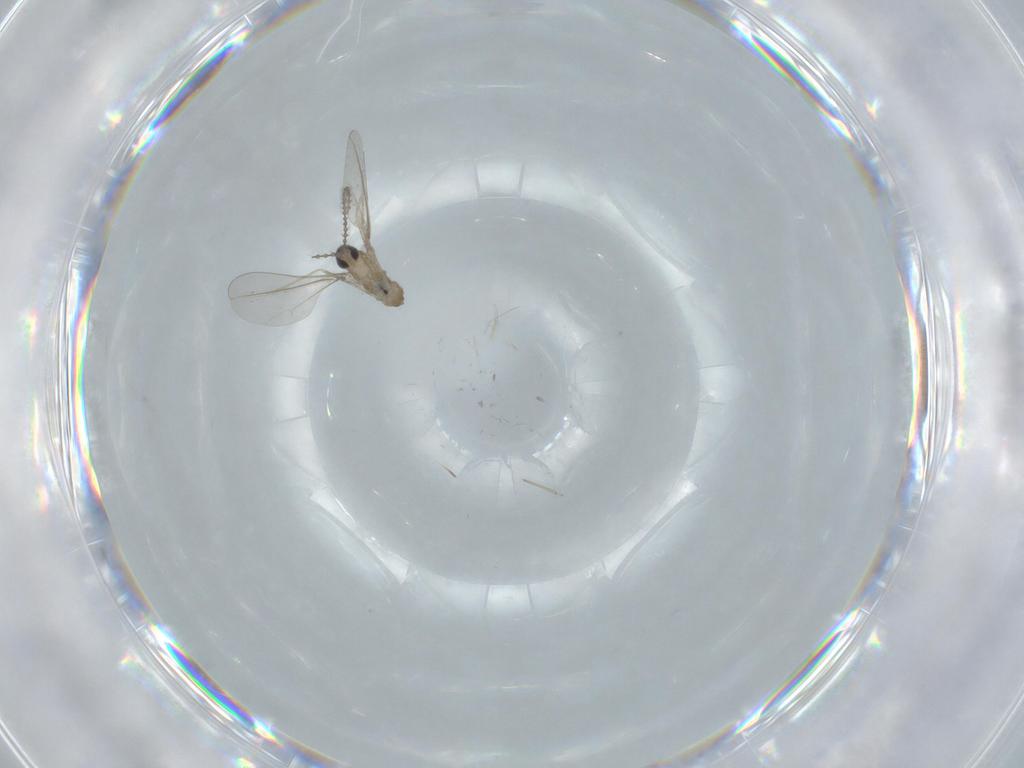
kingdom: Animalia
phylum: Arthropoda
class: Insecta
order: Diptera
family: Cecidomyiidae
